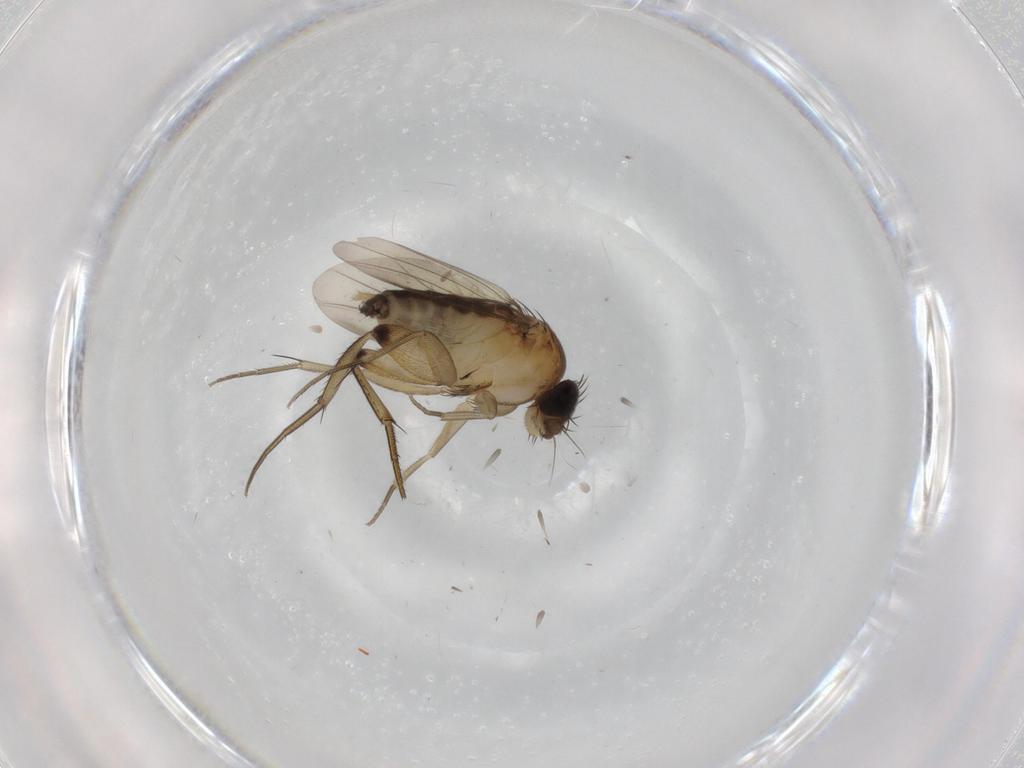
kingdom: Animalia
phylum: Arthropoda
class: Insecta
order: Diptera
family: Phoridae
